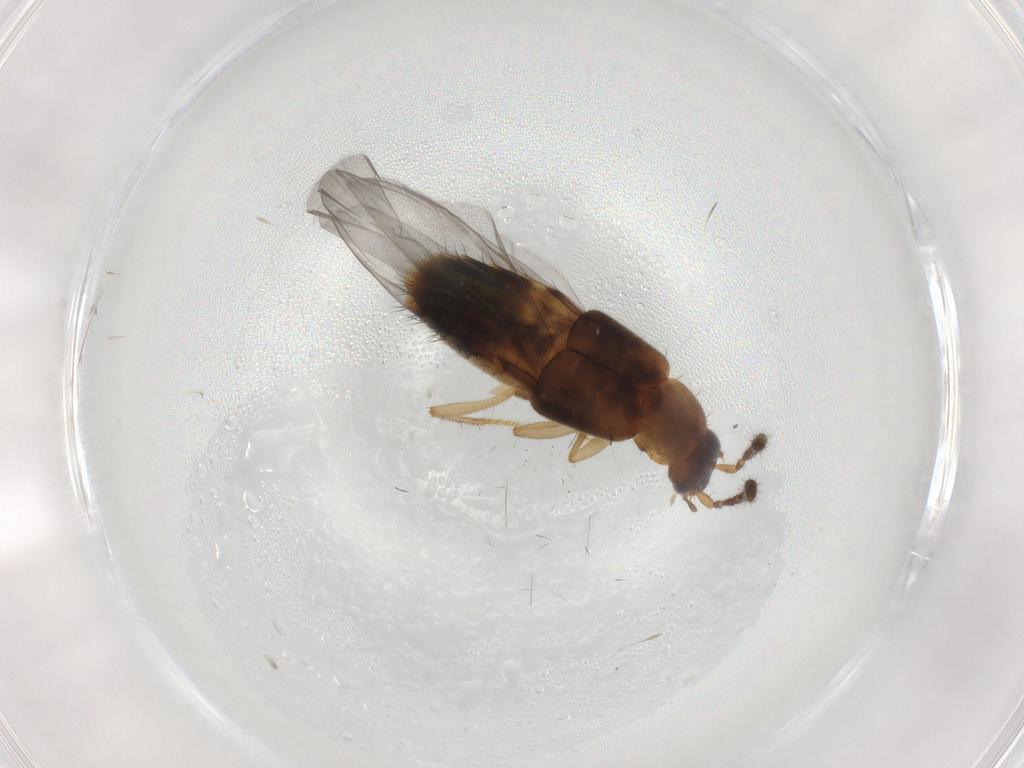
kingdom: Animalia
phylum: Arthropoda
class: Insecta
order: Coleoptera
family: Staphylinidae
